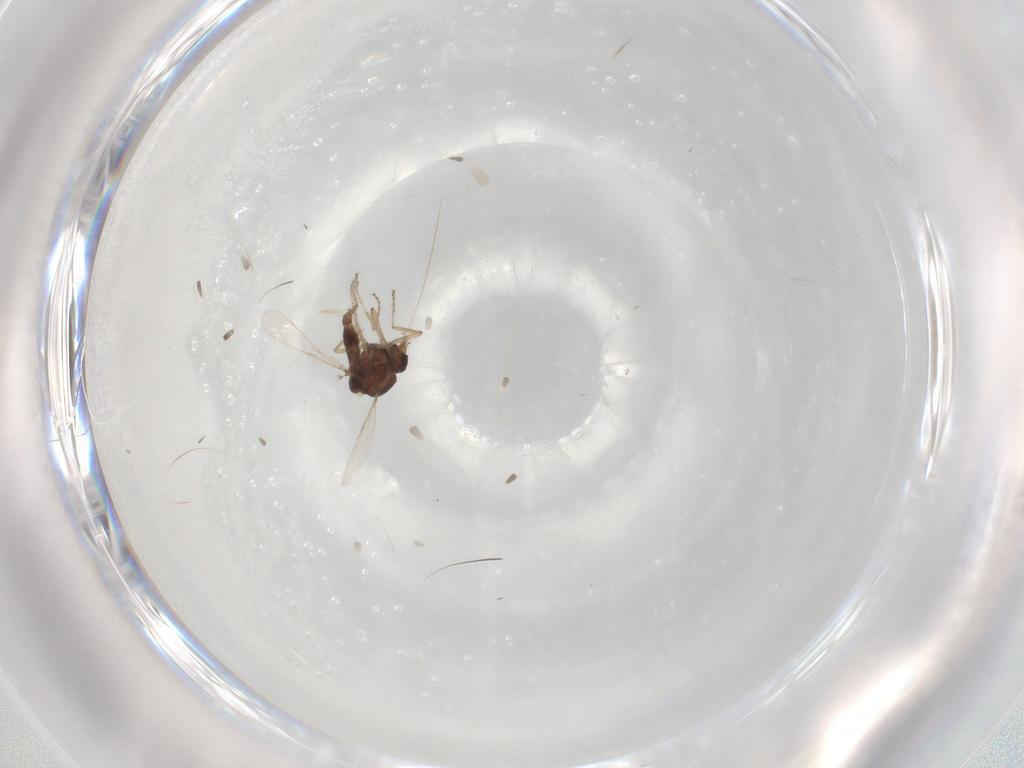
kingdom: Animalia
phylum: Arthropoda
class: Insecta
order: Diptera
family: Ceratopogonidae
